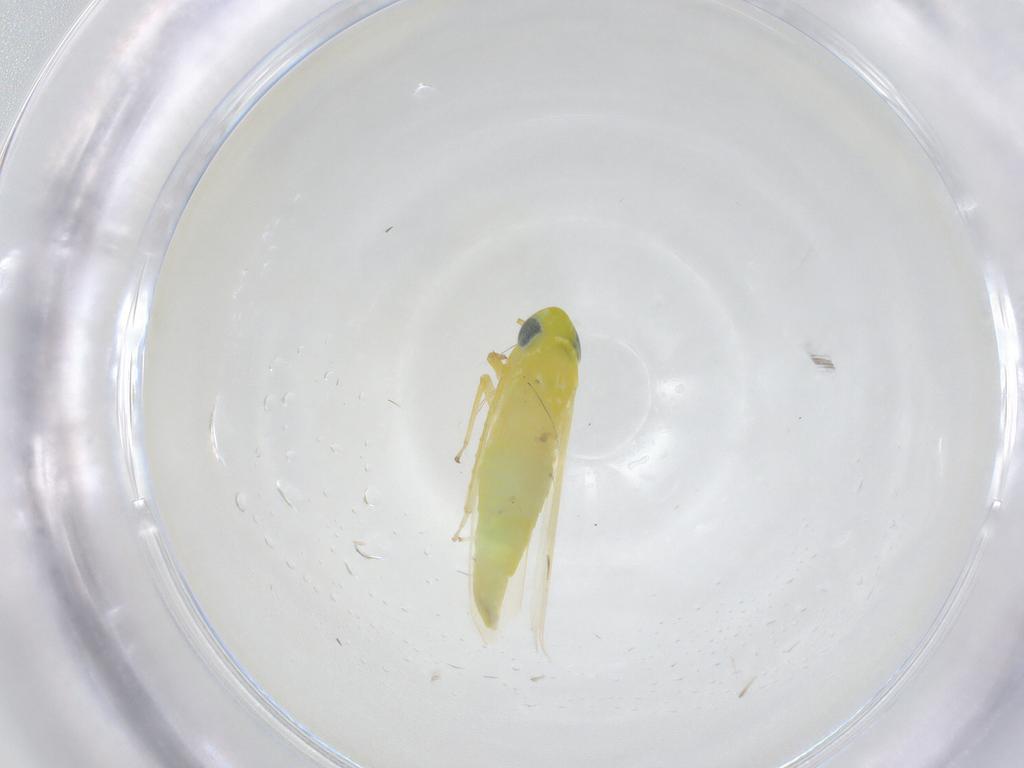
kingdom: Animalia
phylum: Arthropoda
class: Insecta
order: Hemiptera
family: Cicadellidae
